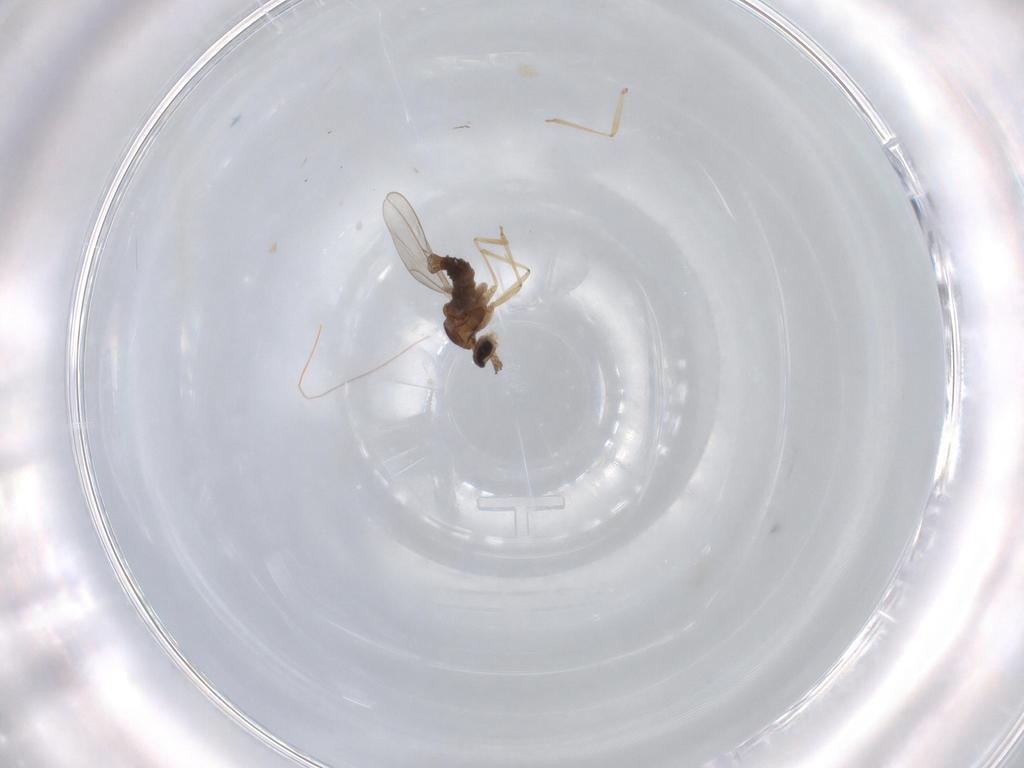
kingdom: Animalia
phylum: Arthropoda
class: Insecta
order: Diptera
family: Cecidomyiidae
